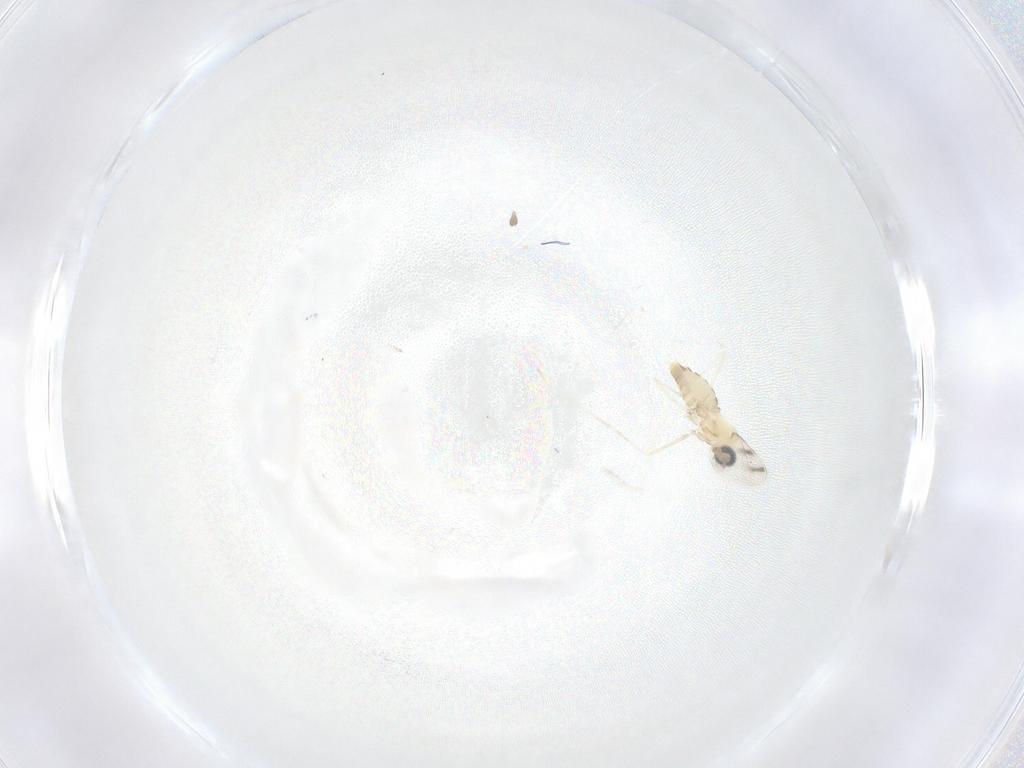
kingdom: Animalia
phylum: Arthropoda
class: Insecta
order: Diptera
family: Cecidomyiidae
